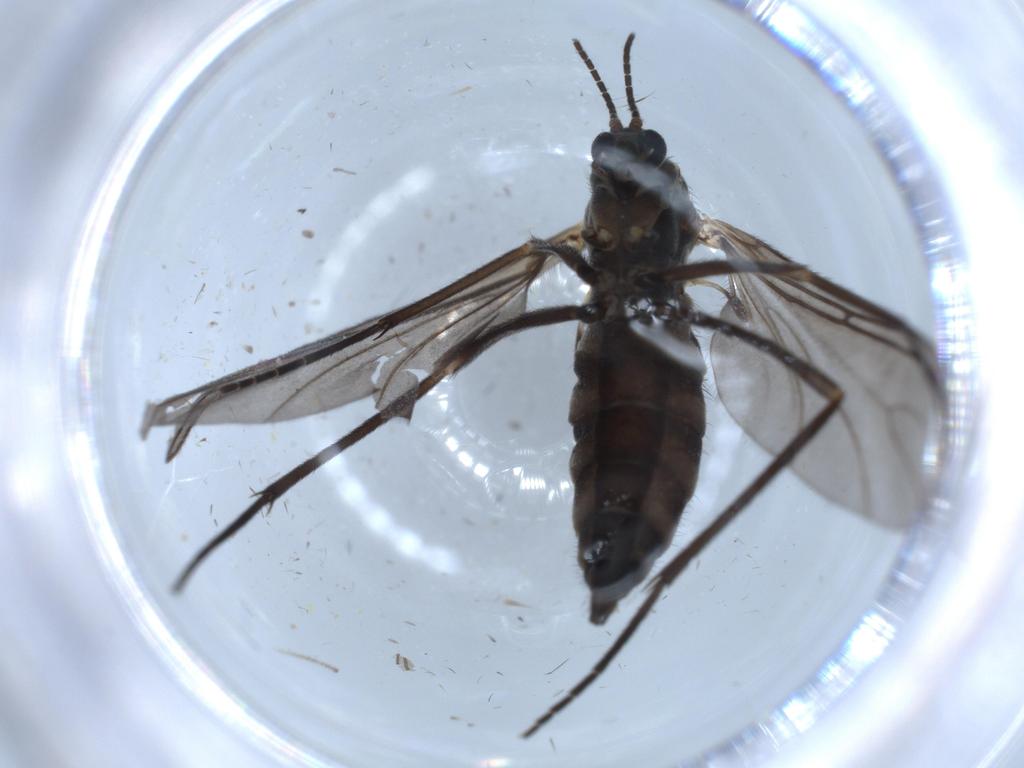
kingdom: Animalia
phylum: Arthropoda
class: Insecta
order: Diptera
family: Sciaridae
